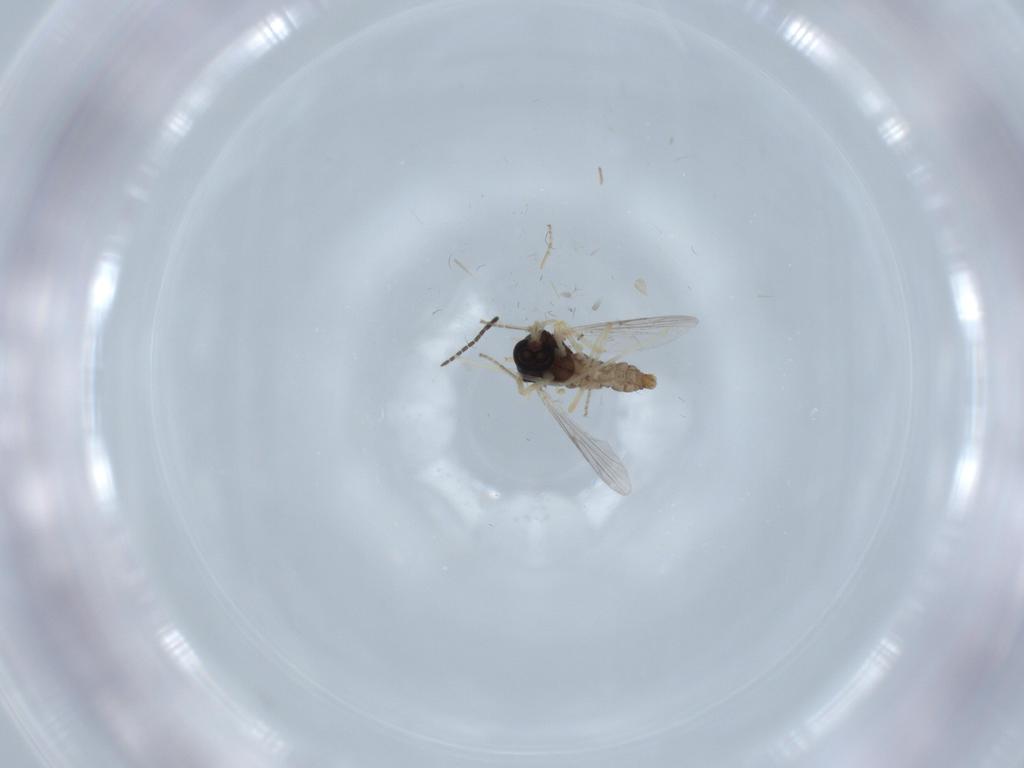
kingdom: Animalia
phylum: Arthropoda
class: Insecta
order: Diptera
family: Ceratopogonidae
